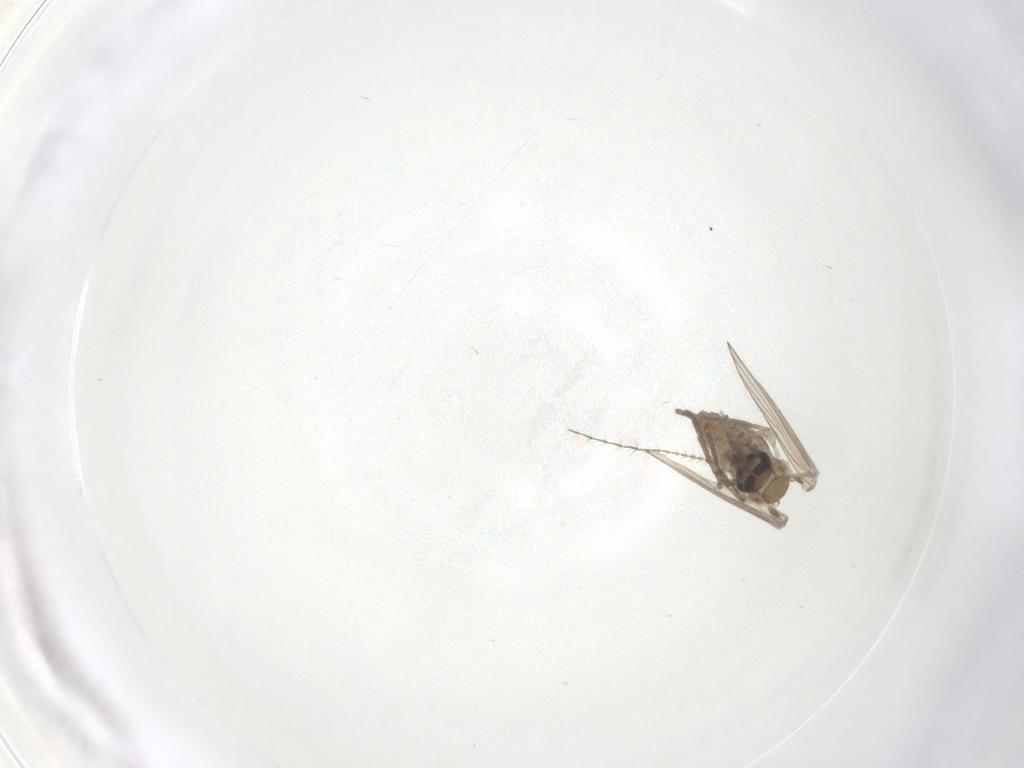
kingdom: Animalia
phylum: Arthropoda
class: Insecta
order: Diptera
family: Psychodidae
